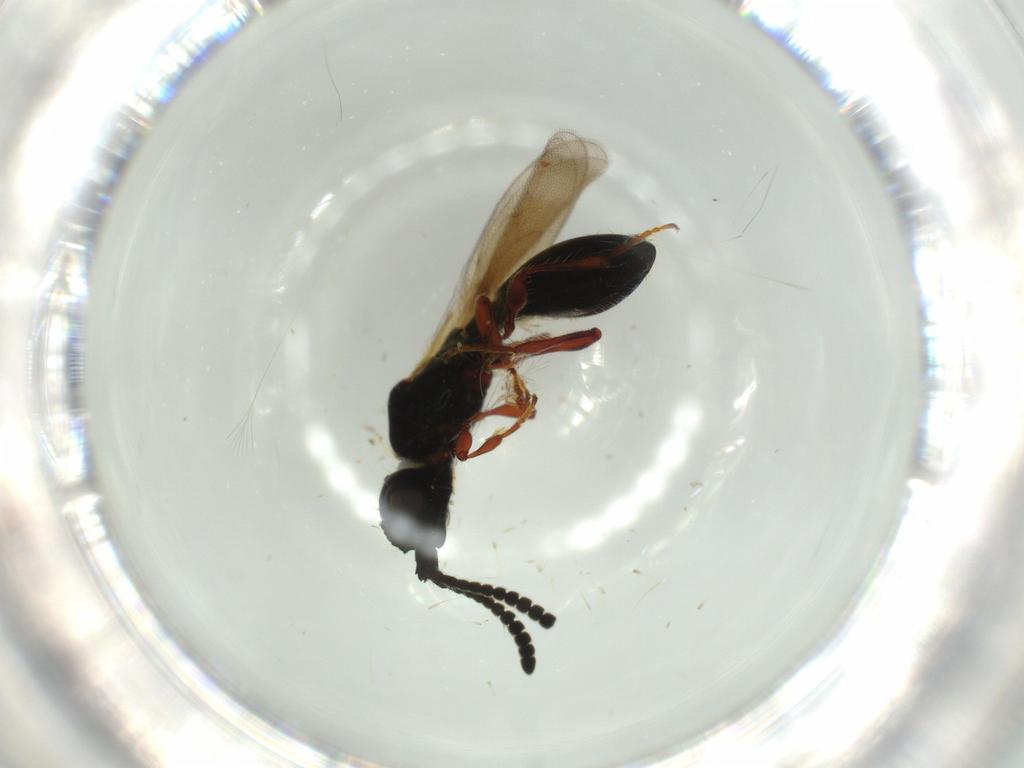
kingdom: Animalia
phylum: Arthropoda
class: Insecta
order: Hymenoptera
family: Diapriidae
